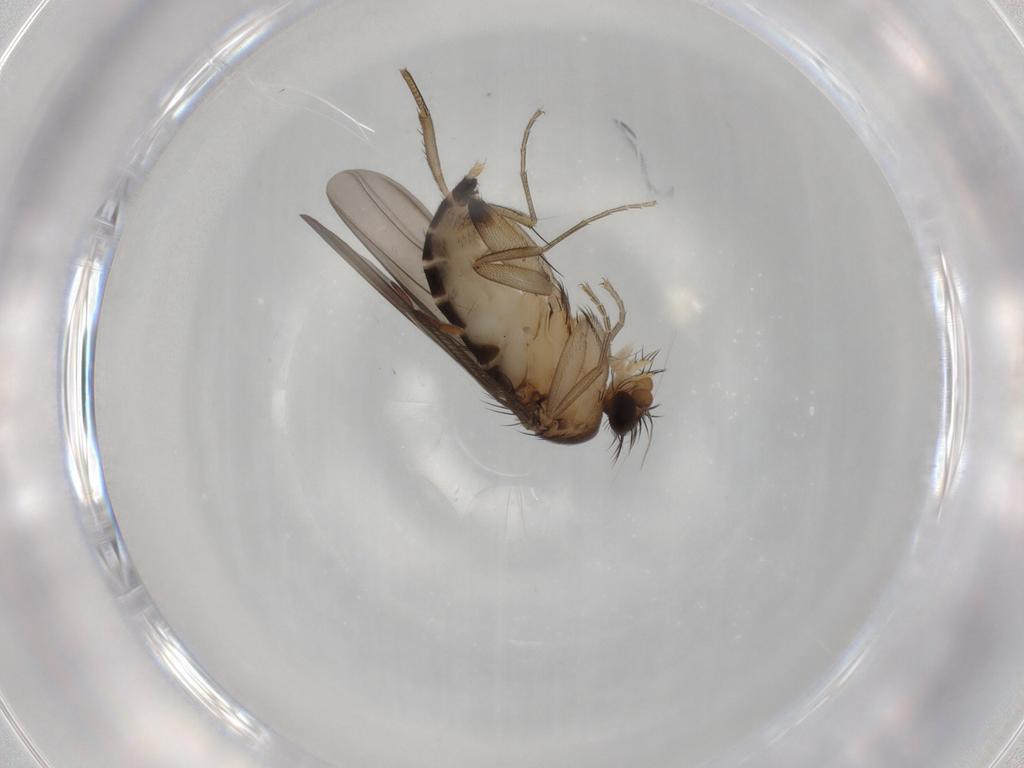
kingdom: Animalia
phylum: Arthropoda
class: Insecta
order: Diptera
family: Phoridae
